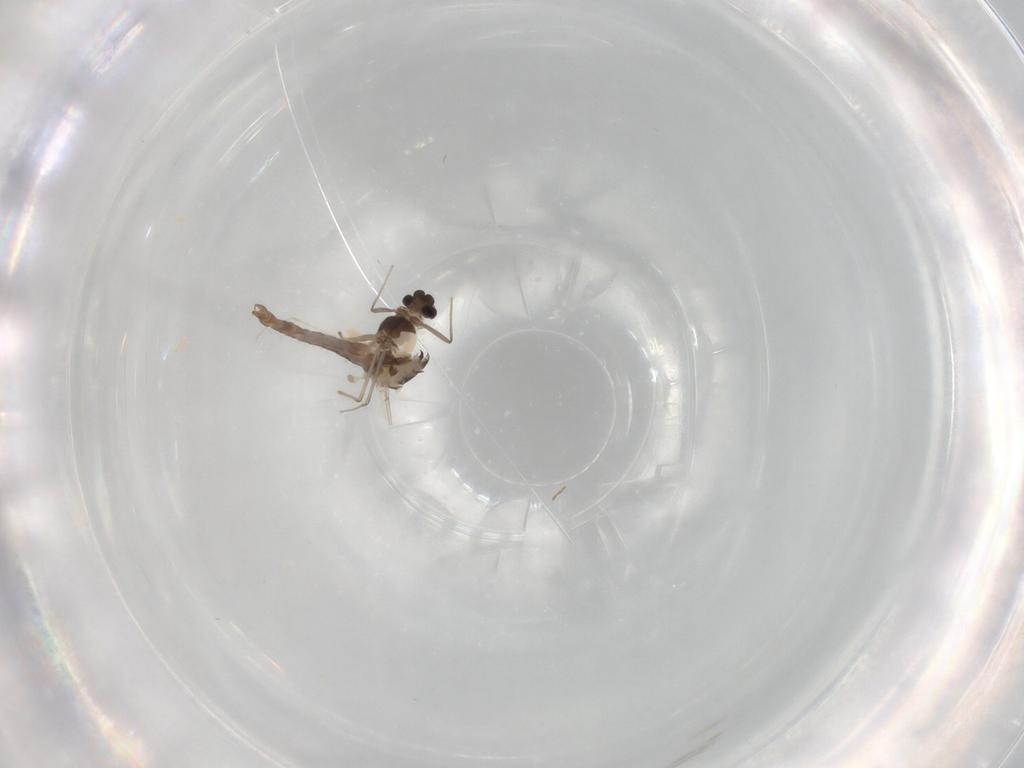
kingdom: Animalia
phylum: Arthropoda
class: Insecta
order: Diptera
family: Chironomidae
